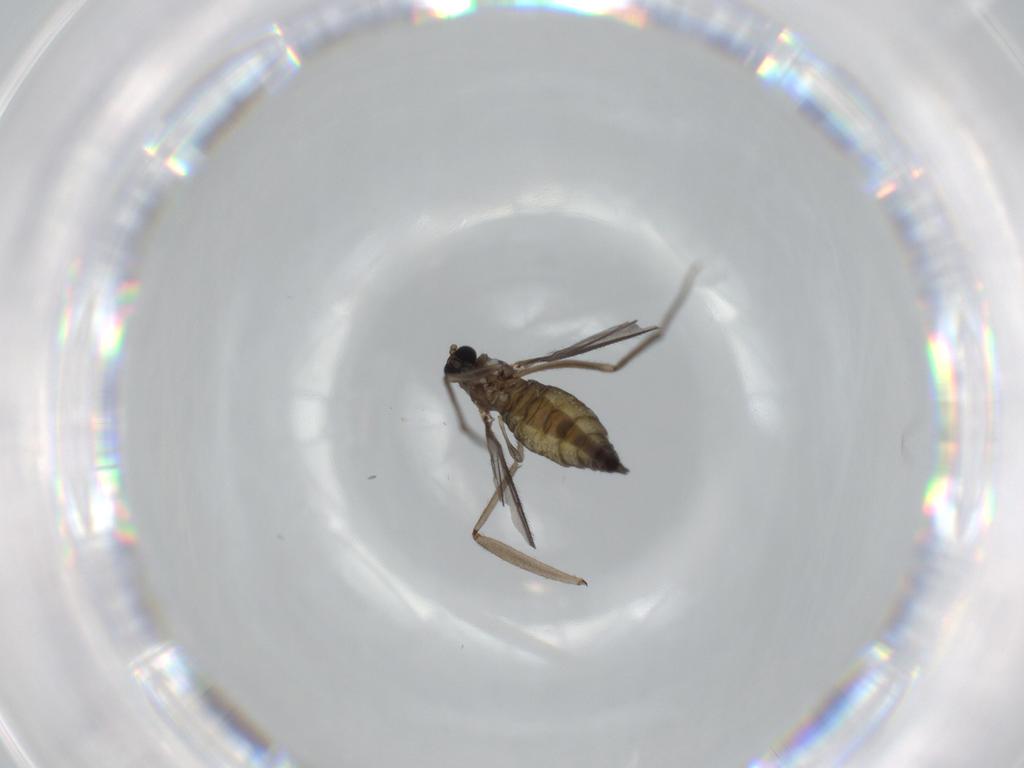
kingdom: Animalia
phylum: Arthropoda
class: Insecta
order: Diptera
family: Sciaridae
